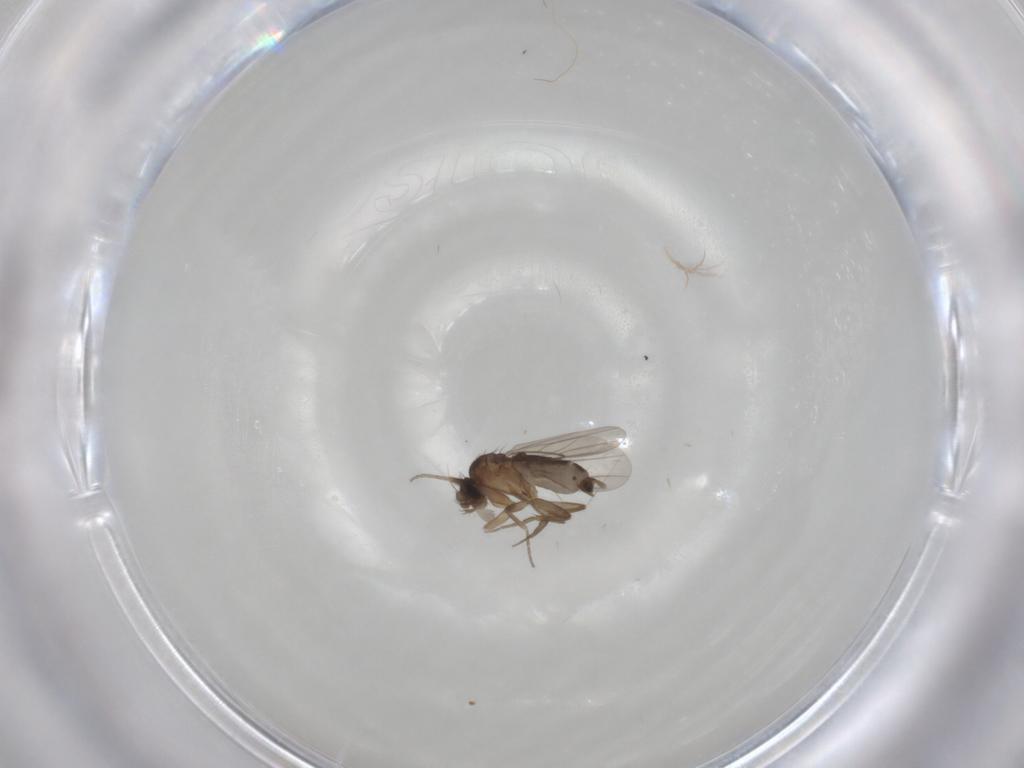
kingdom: Animalia
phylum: Arthropoda
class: Insecta
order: Diptera
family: Phoridae
